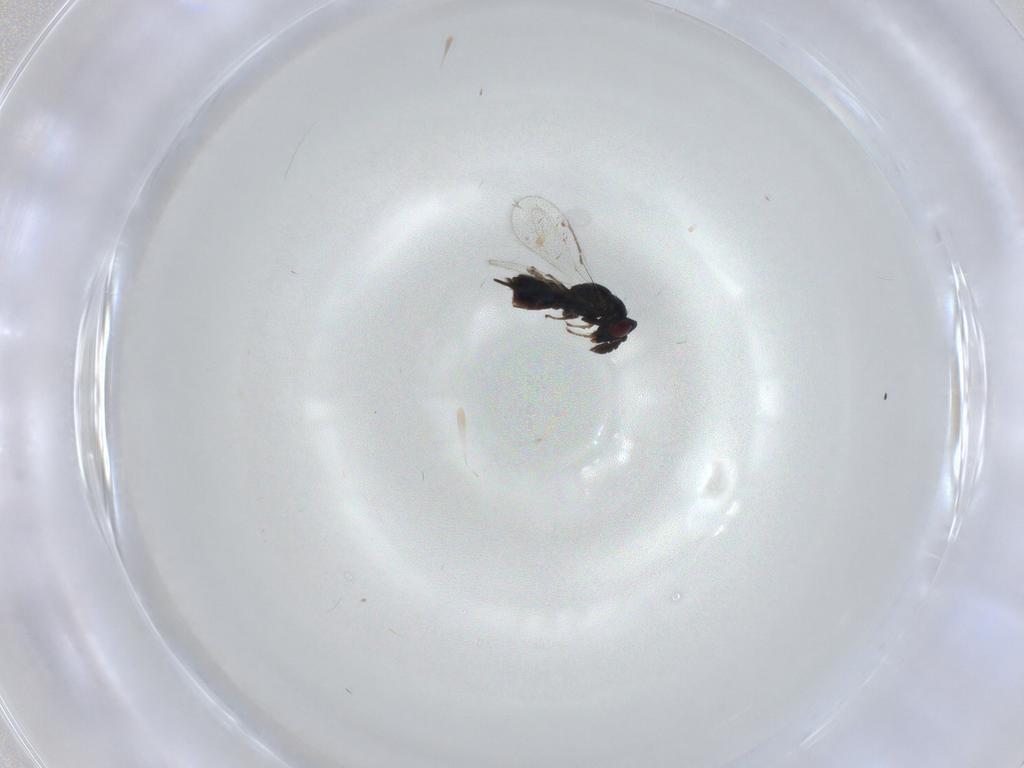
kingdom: Animalia
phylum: Arthropoda
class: Insecta
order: Hymenoptera
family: Pirenidae
